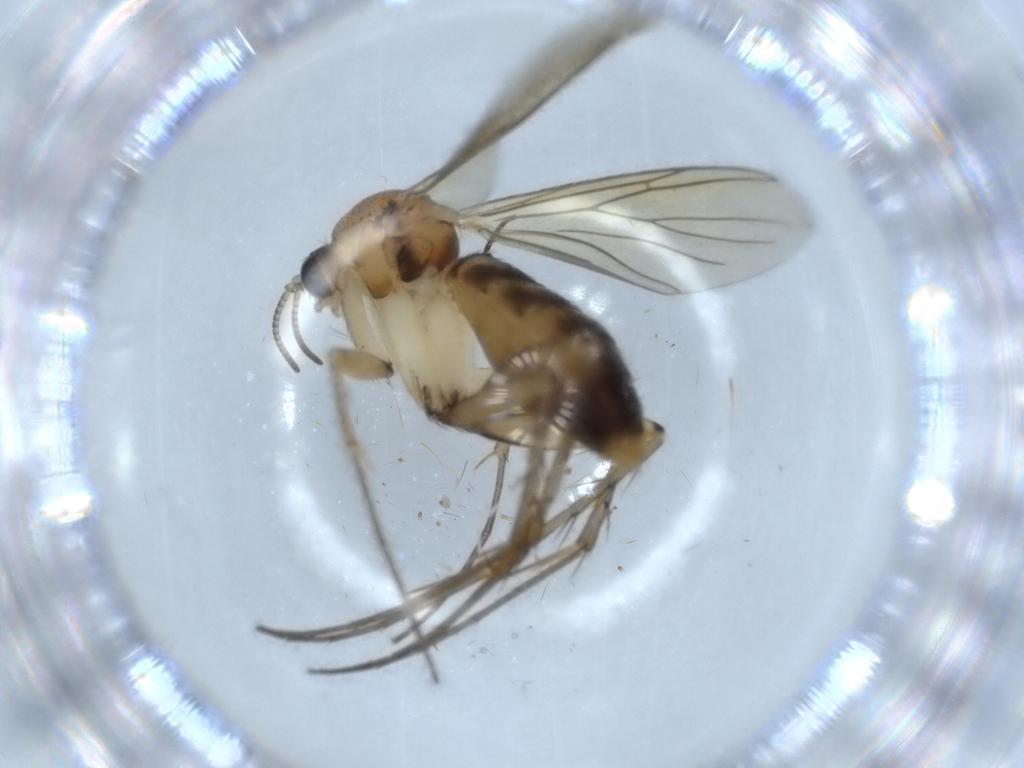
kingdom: Animalia
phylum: Arthropoda
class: Insecta
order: Diptera
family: Mycetophilidae
